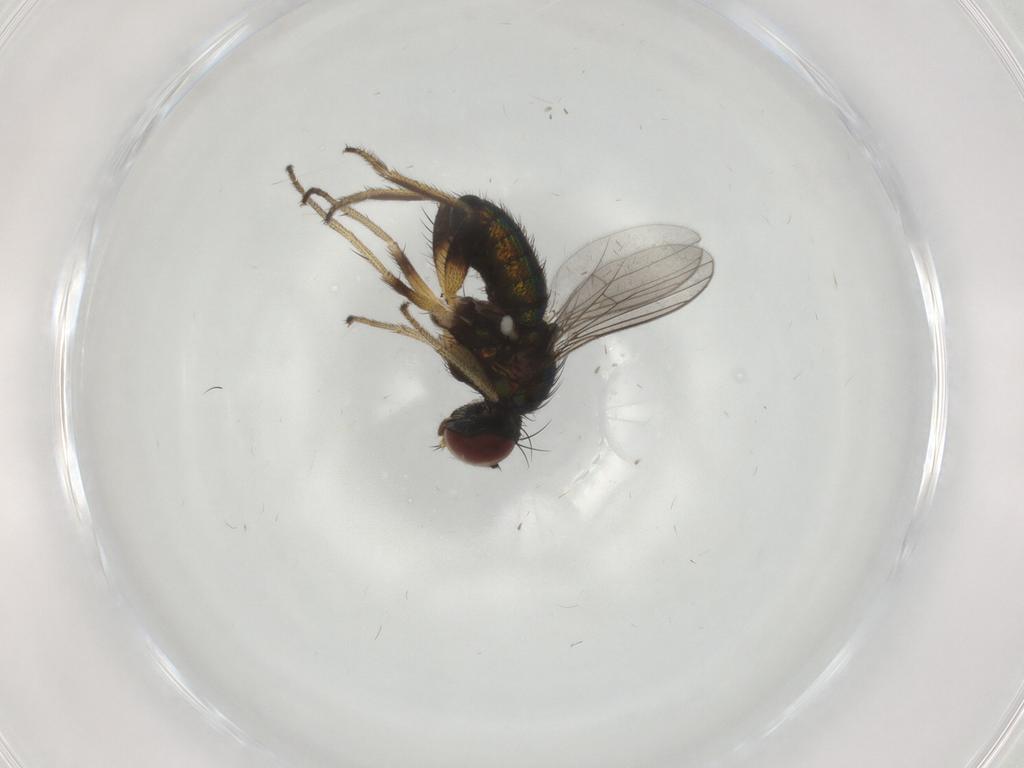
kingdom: Animalia
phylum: Arthropoda
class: Insecta
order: Diptera
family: Dolichopodidae
